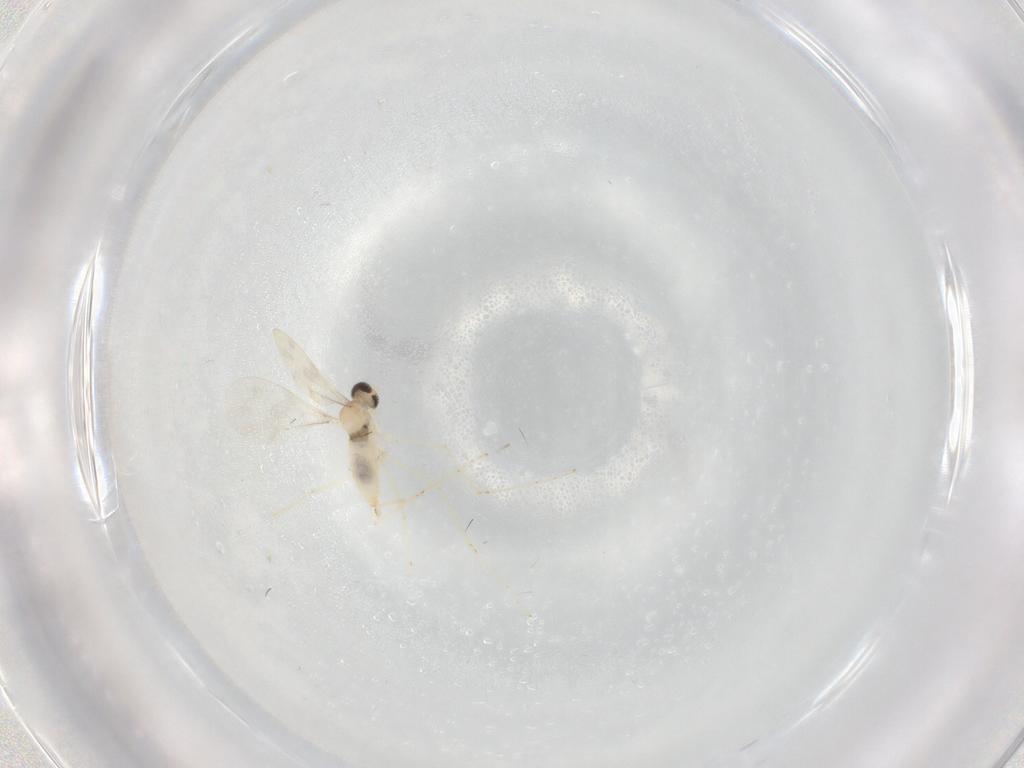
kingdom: Animalia
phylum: Arthropoda
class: Insecta
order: Diptera
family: Cecidomyiidae
